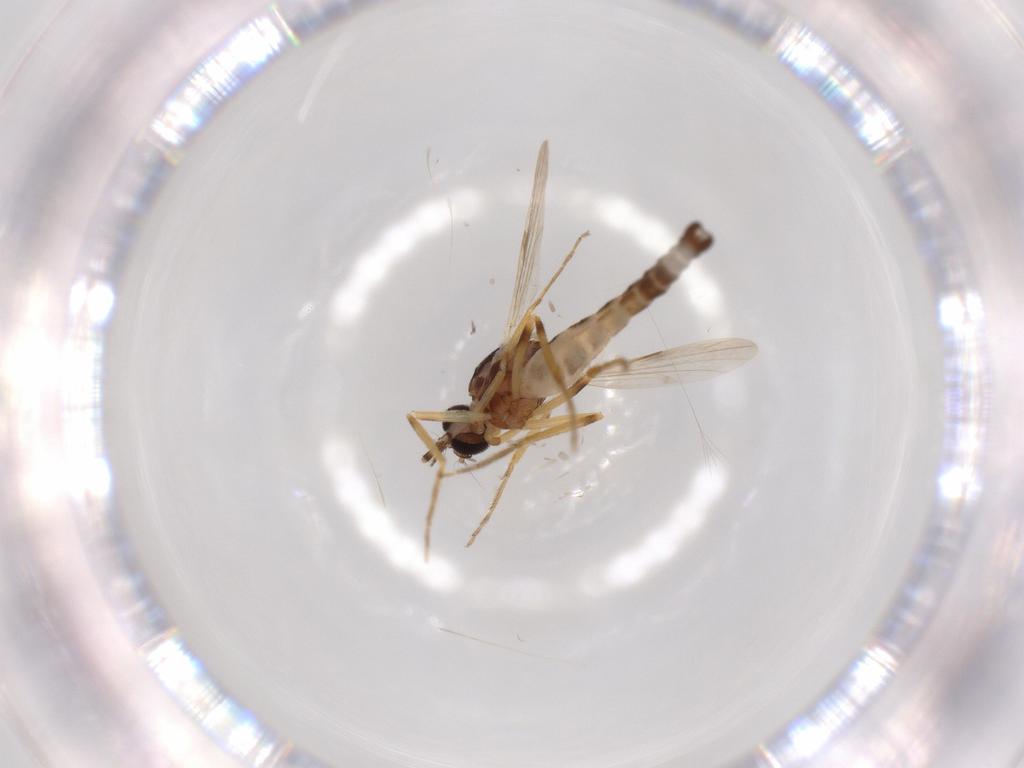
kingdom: Animalia
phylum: Arthropoda
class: Insecta
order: Diptera
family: Ceratopogonidae
